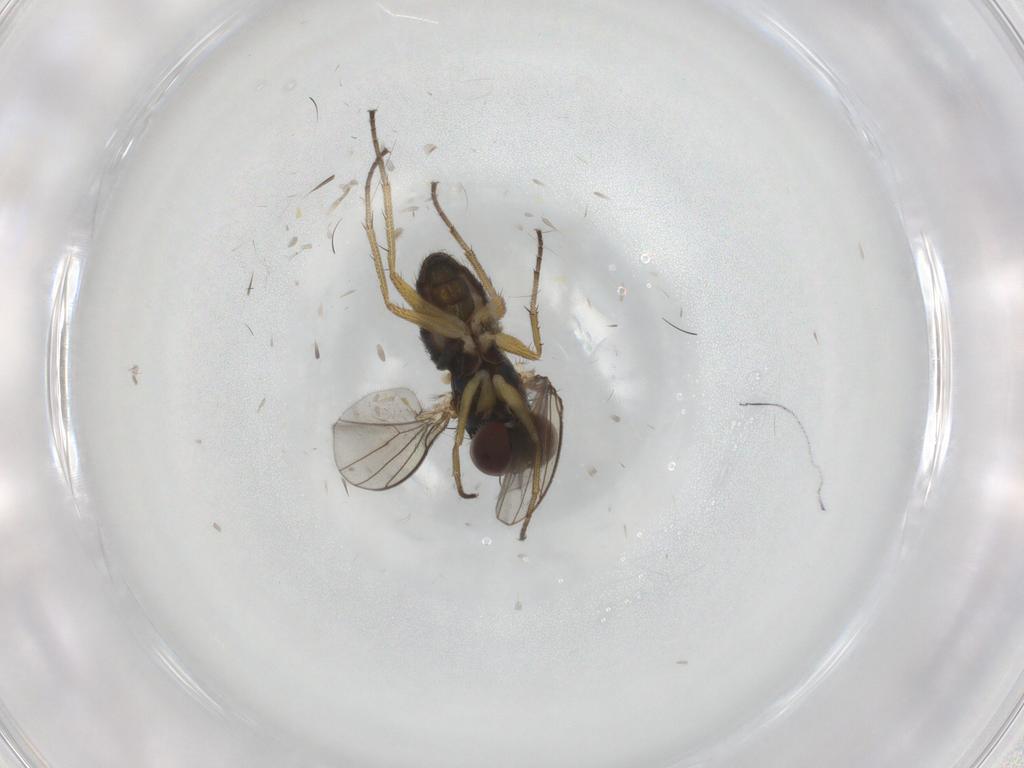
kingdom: Animalia
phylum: Arthropoda
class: Insecta
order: Diptera
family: Dolichopodidae
